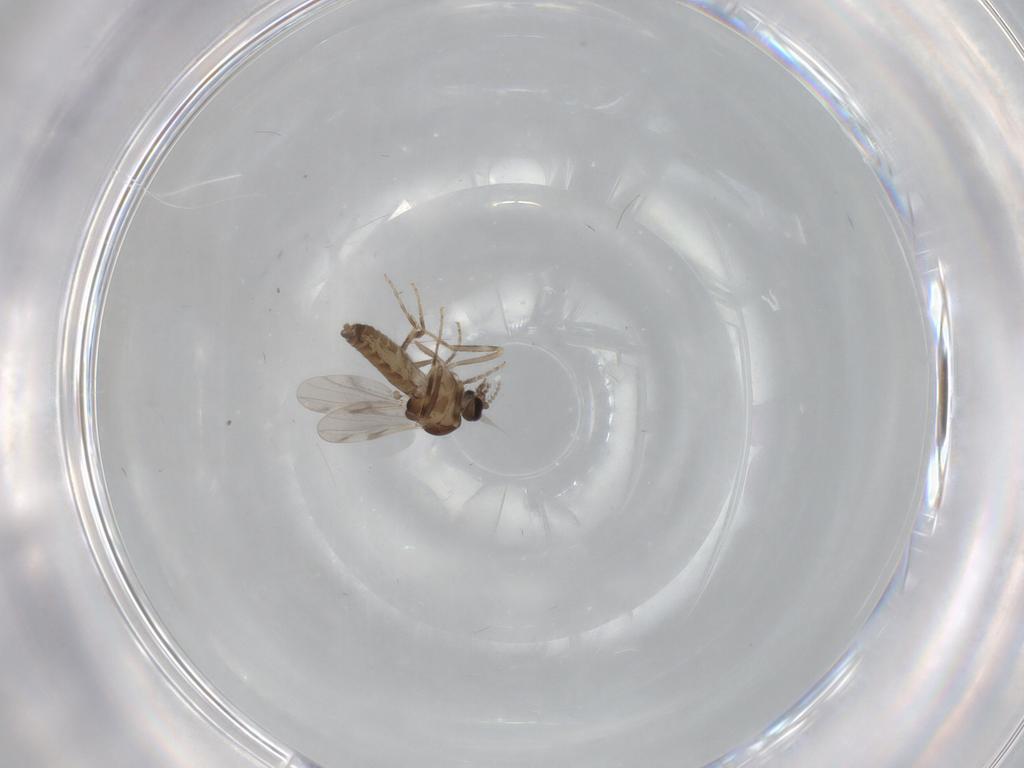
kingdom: Animalia
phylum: Arthropoda
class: Insecta
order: Diptera
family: Ceratopogonidae
